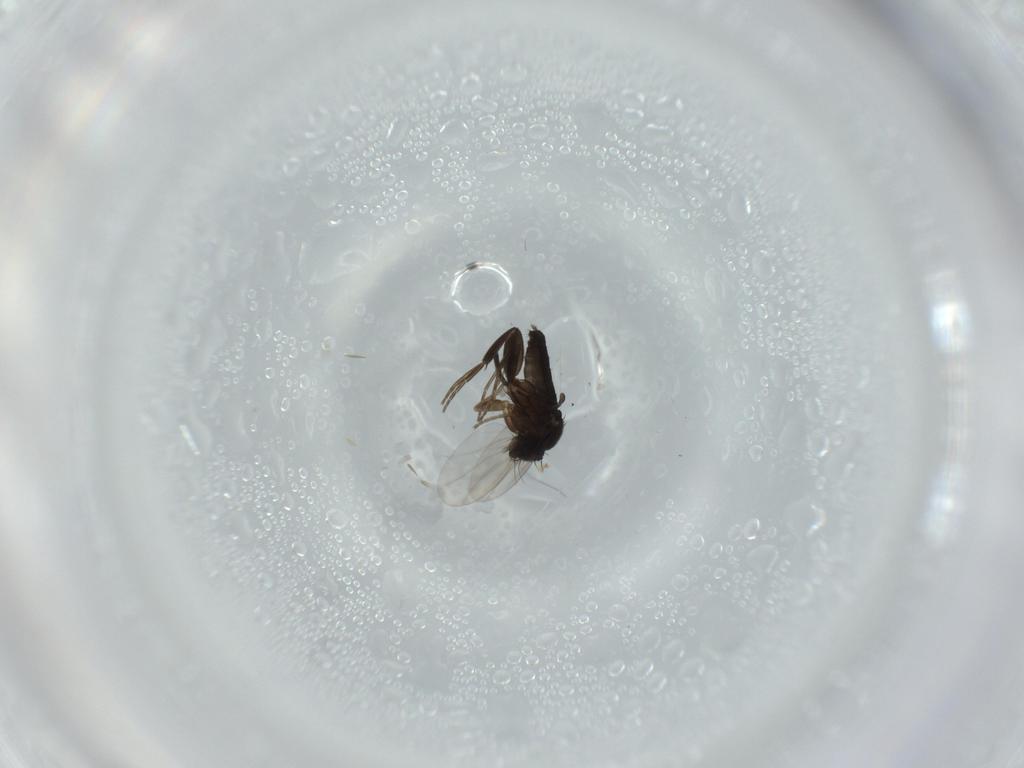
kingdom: Animalia
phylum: Arthropoda
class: Insecta
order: Diptera
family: Phoridae
